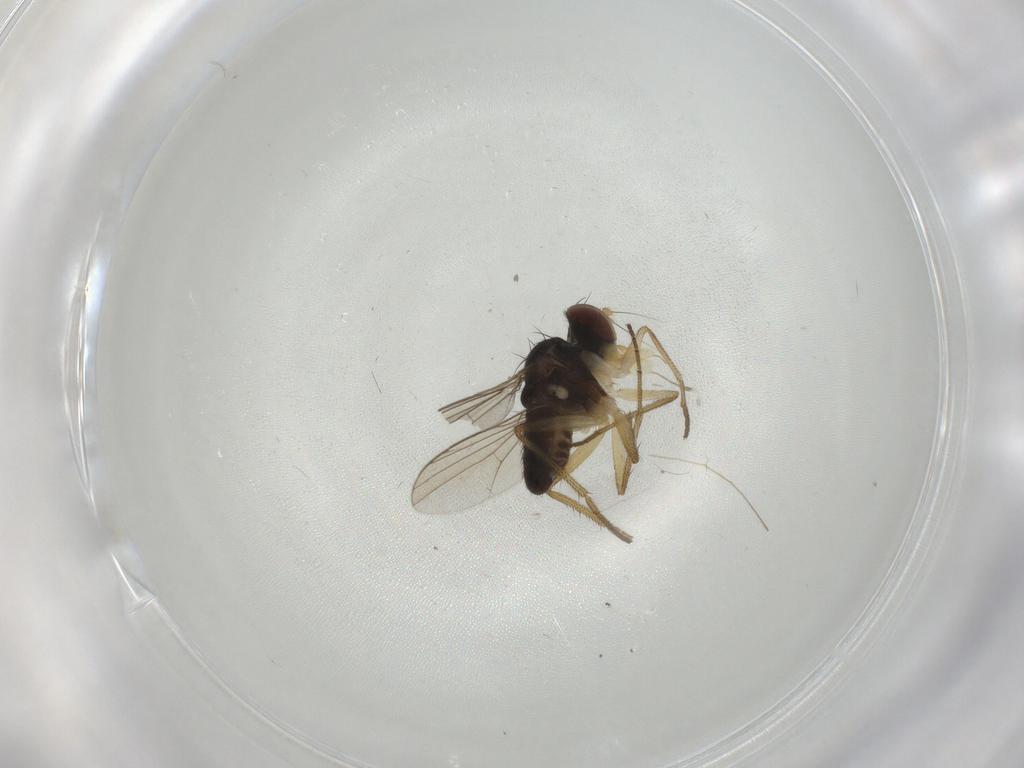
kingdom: Animalia
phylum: Arthropoda
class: Insecta
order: Diptera
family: Dolichopodidae
